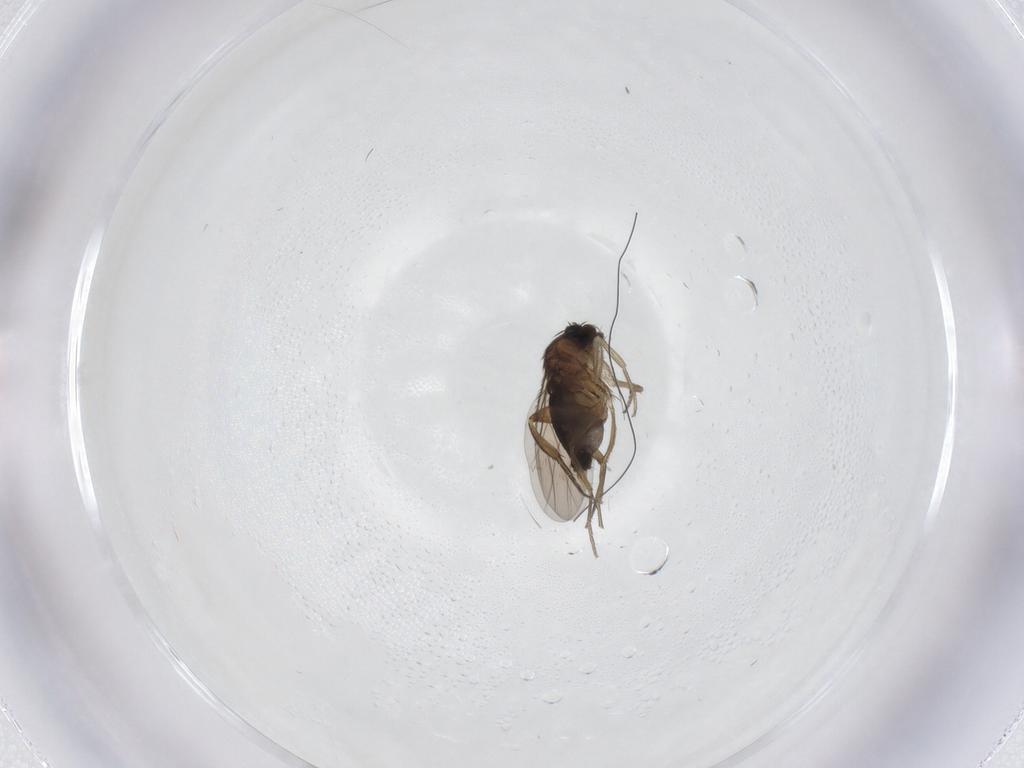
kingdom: Animalia
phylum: Arthropoda
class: Insecta
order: Diptera
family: Phoridae
